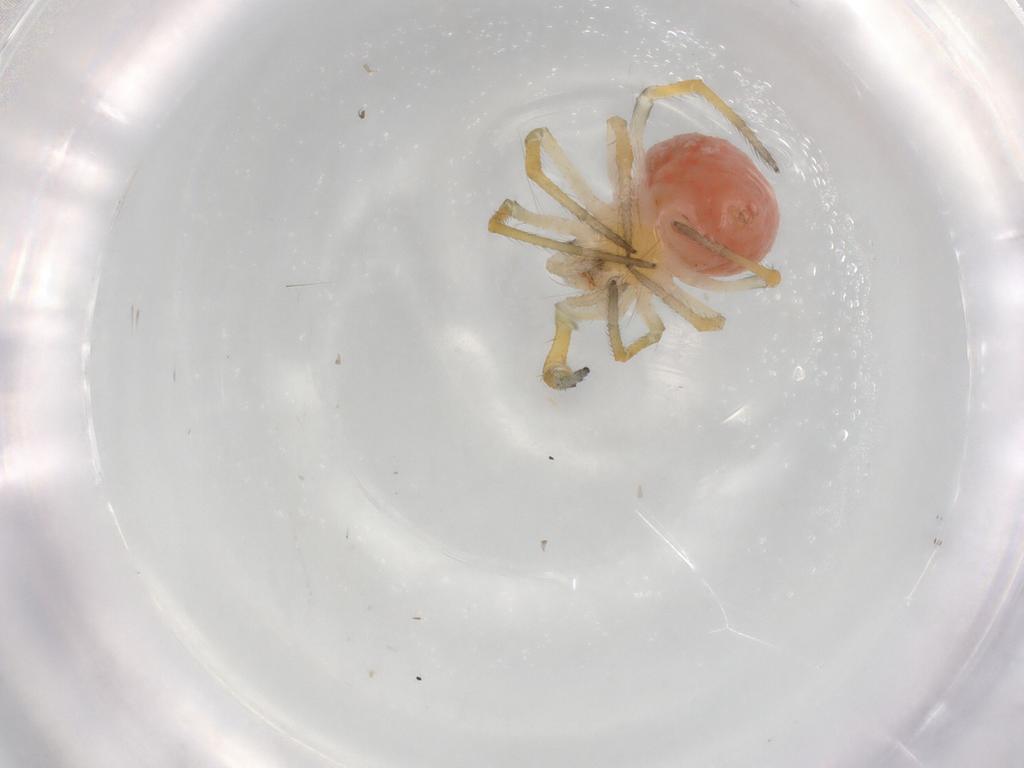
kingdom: Animalia
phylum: Arthropoda
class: Arachnida
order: Araneae
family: Theridiidae
